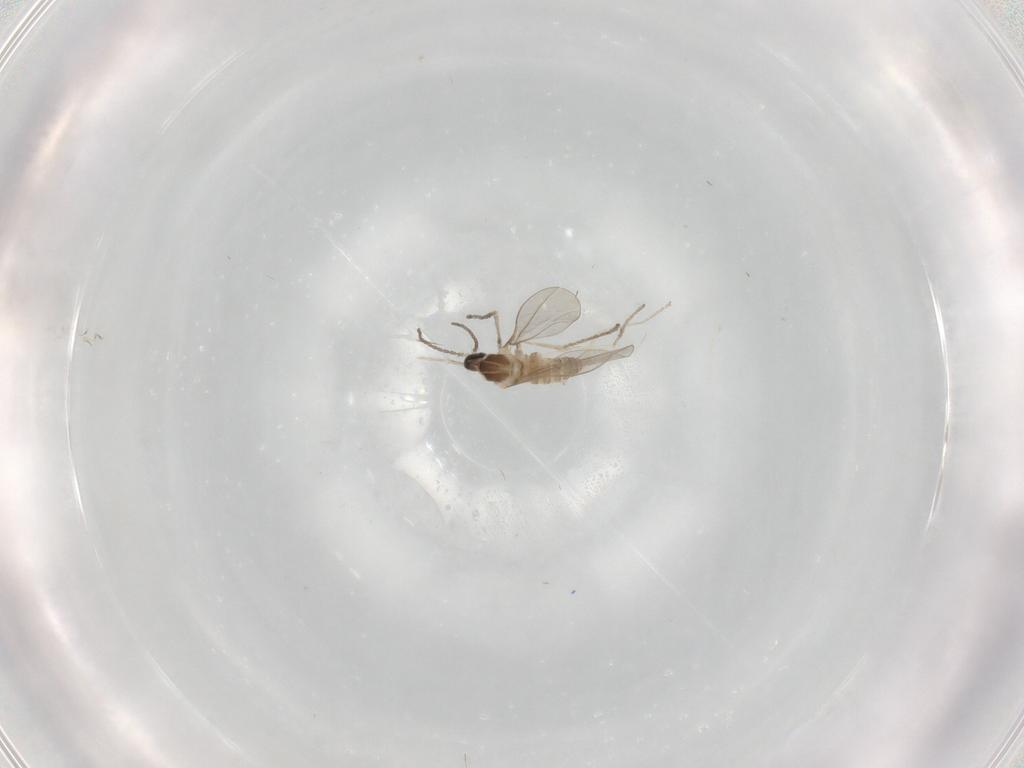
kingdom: Animalia
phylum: Arthropoda
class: Insecta
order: Diptera
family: Cecidomyiidae
